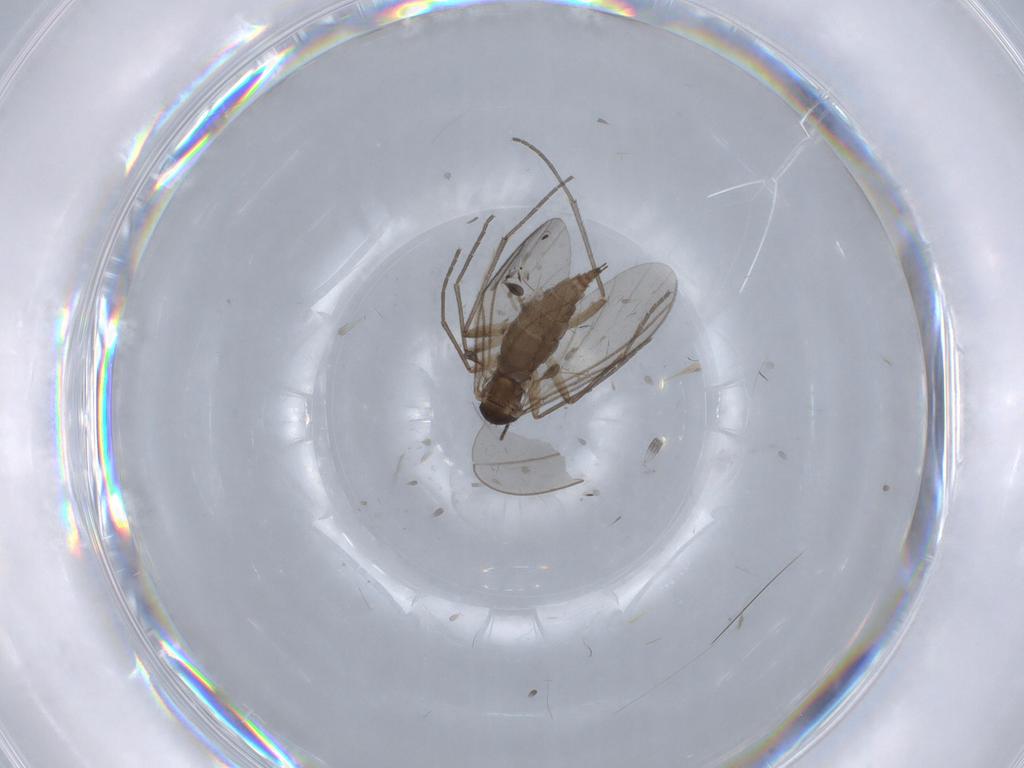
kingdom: Animalia
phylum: Arthropoda
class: Insecta
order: Diptera
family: Sciaridae
